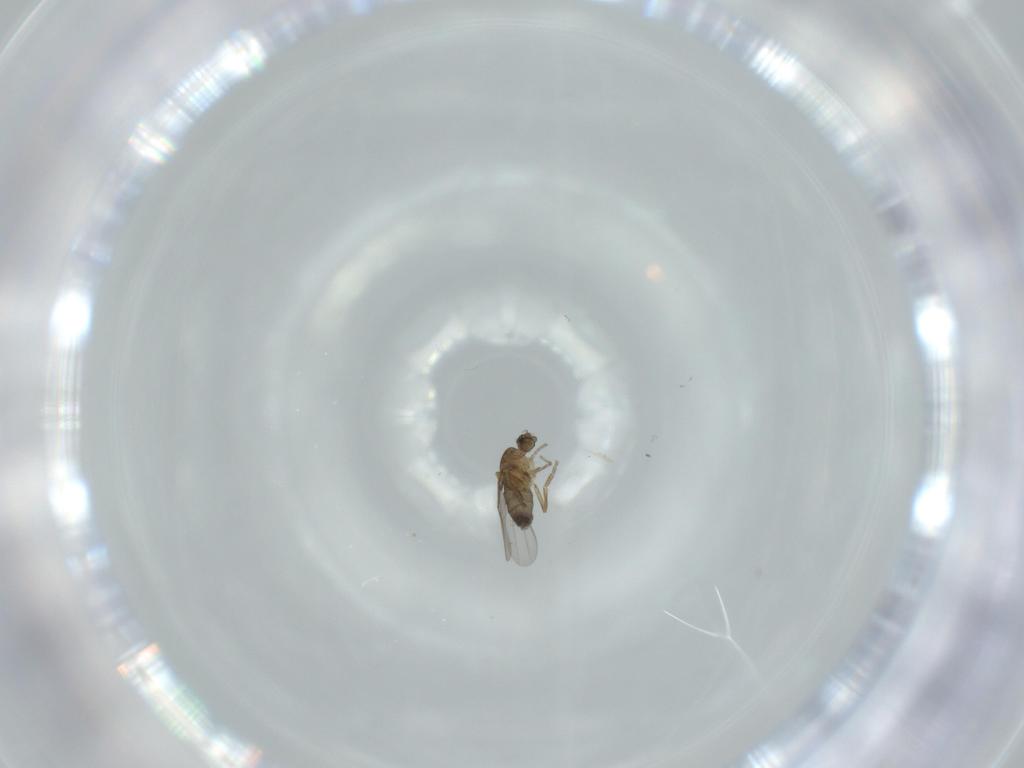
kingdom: Animalia
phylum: Arthropoda
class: Insecta
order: Diptera
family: Phoridae
